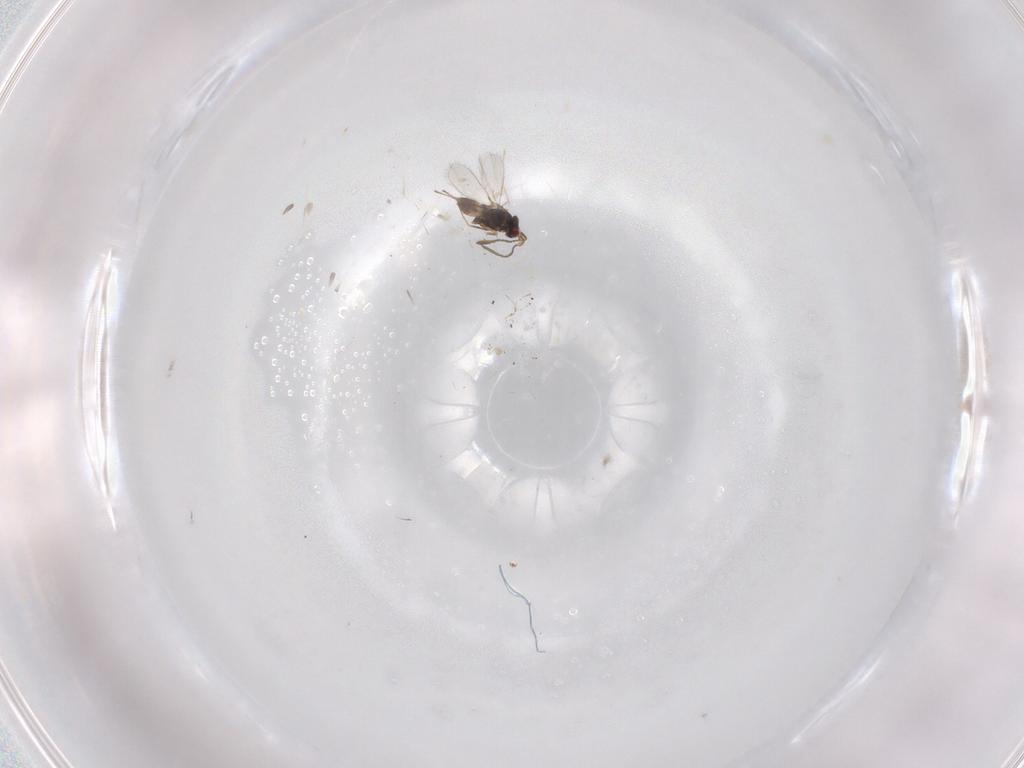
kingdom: Animalia
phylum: Arthropoda
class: Insecta
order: Hymenoptera
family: Mymaridae
